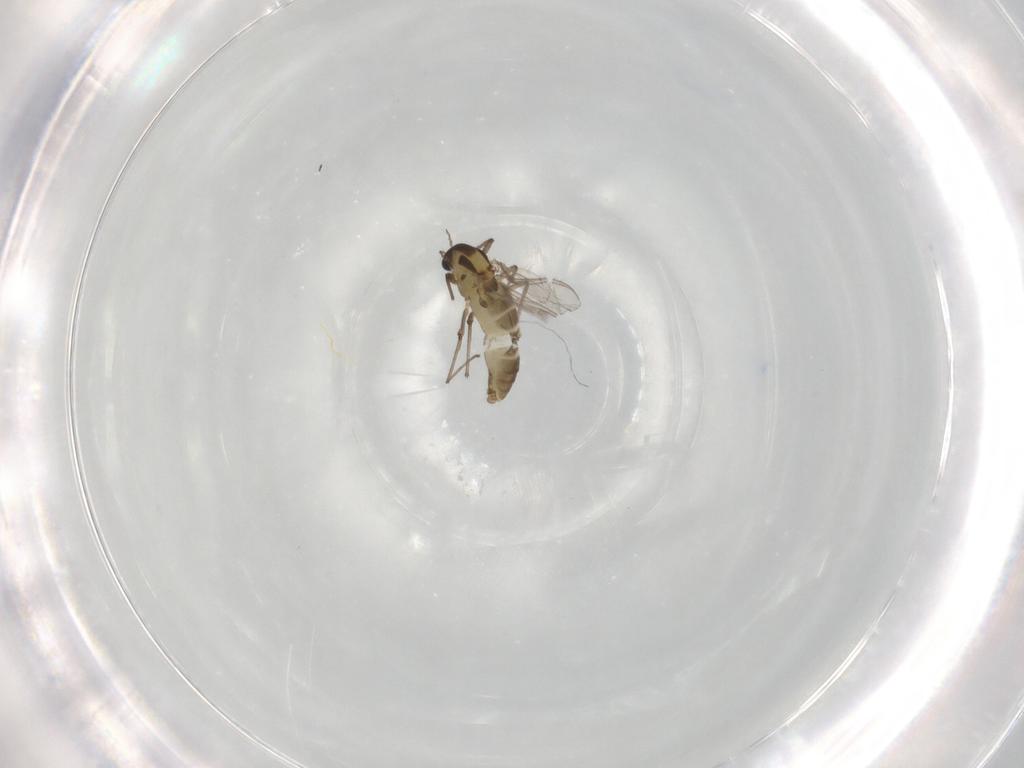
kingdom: Animalia
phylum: Arthropoda
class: Insecta
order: Diptera
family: Chironomidae
